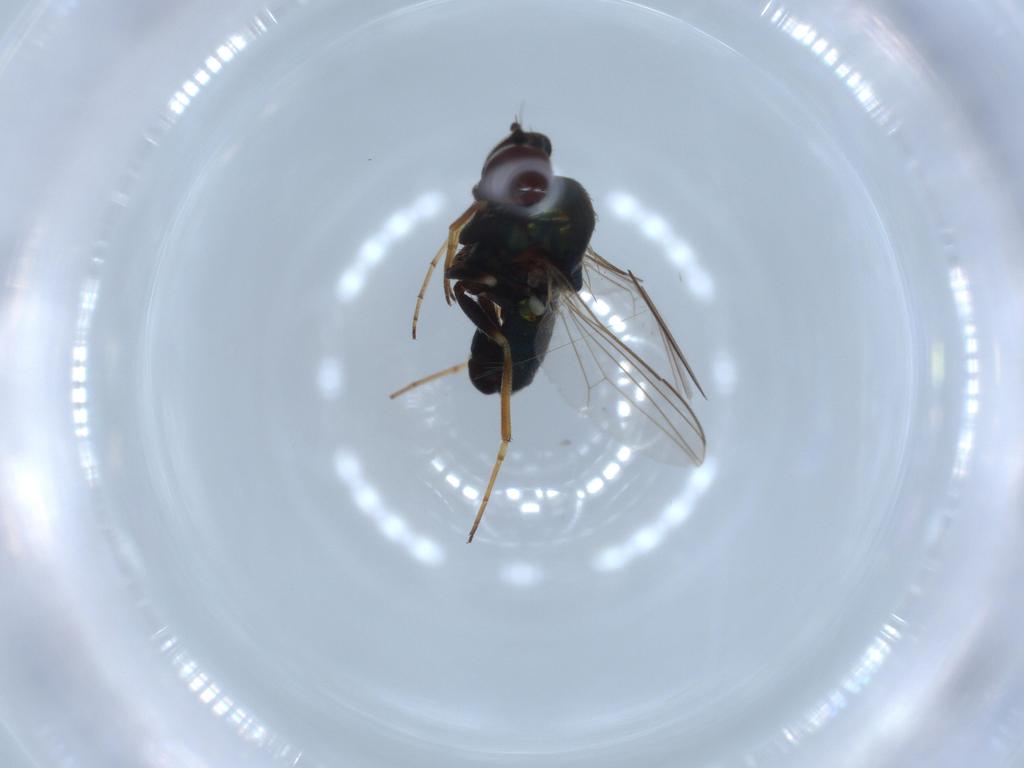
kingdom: Animalia
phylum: Arthropoda
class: Insecta
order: Diptera
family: Dolichopodidae
